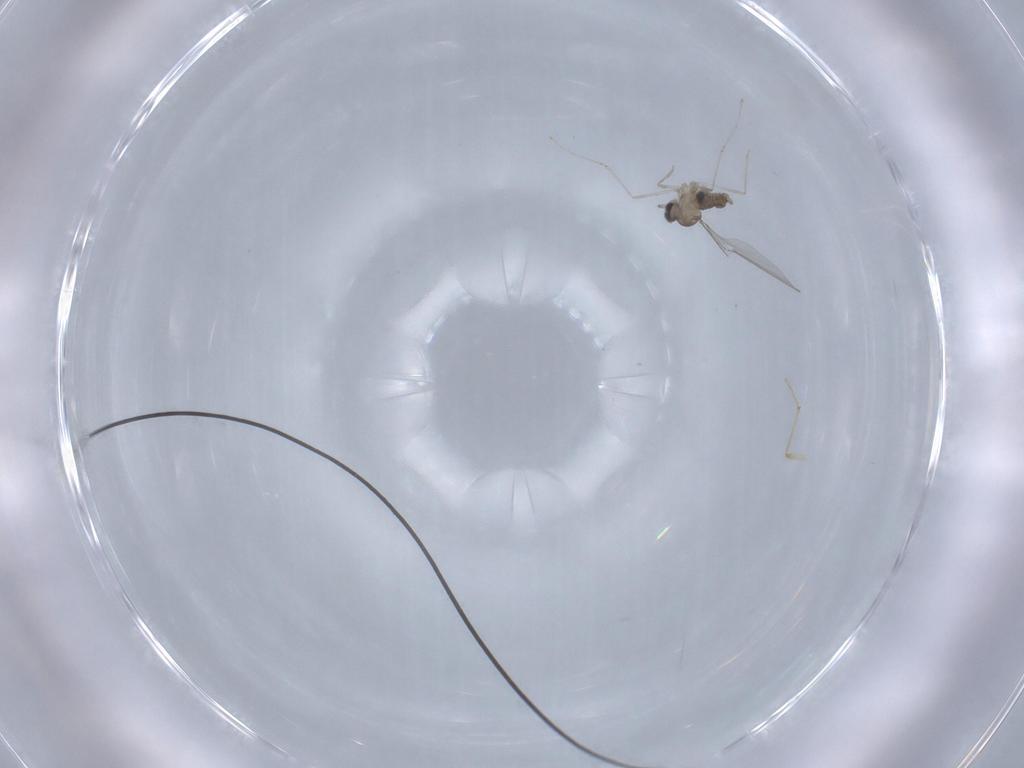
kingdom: Animalia
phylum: Arthropoda
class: Insecta
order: Diptera
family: Cecidomyiidae
